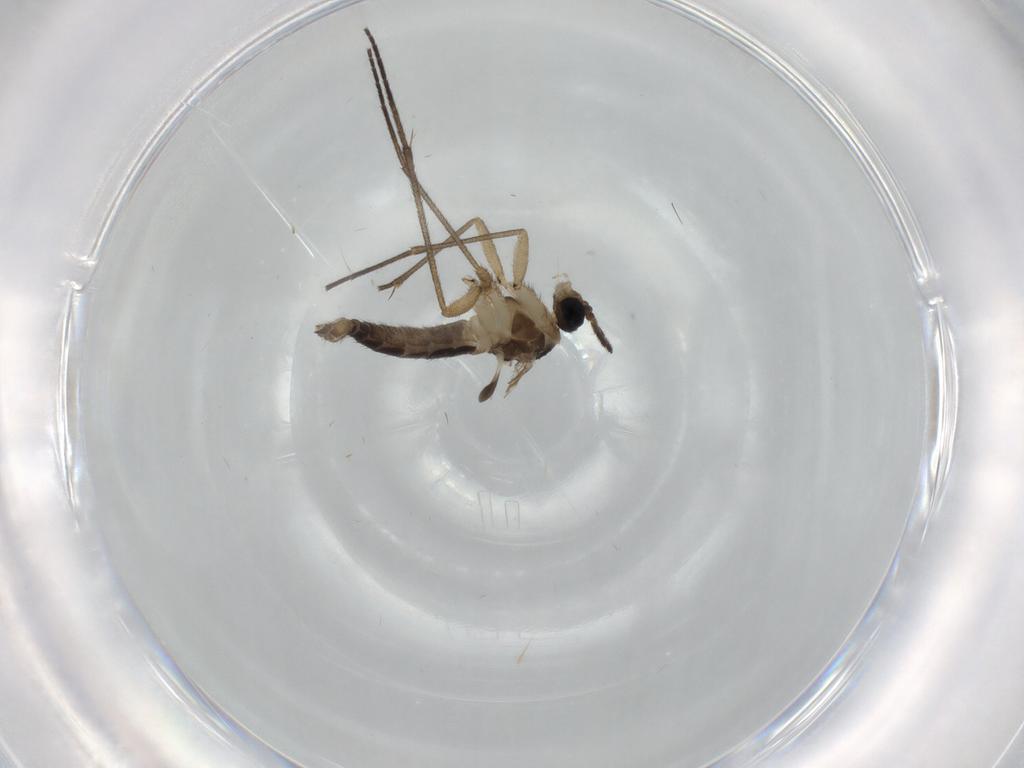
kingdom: Animalia
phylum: Arthropoda
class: Insecta
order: Diptera
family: Sciaridae
